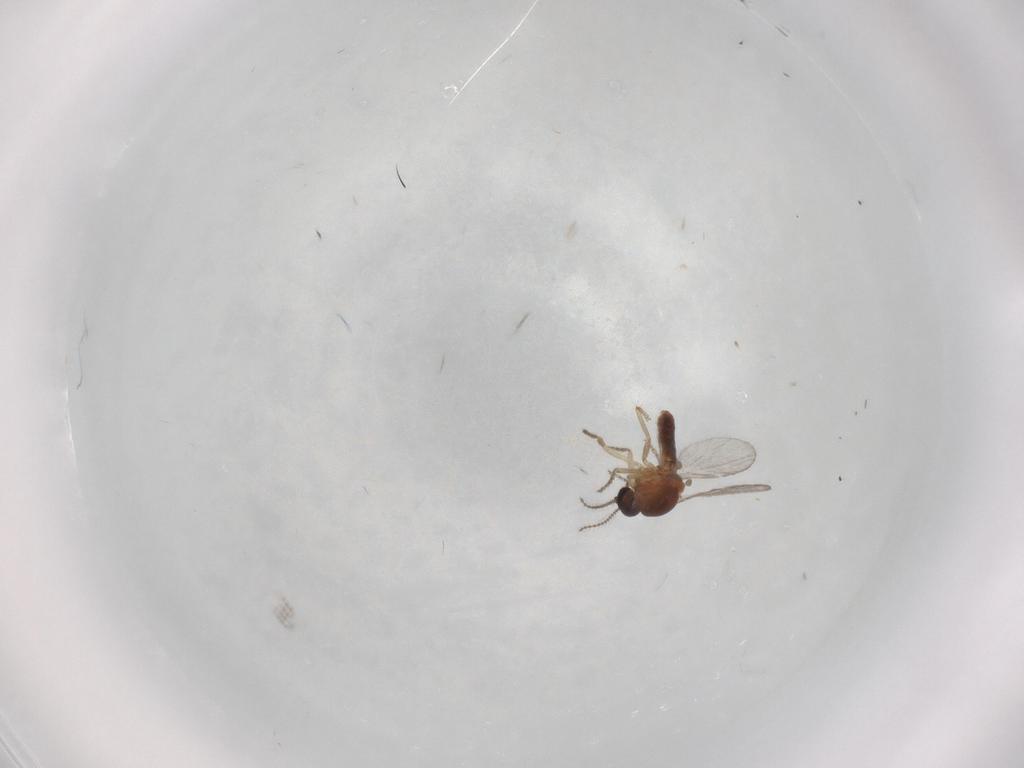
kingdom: Animalia
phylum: Arthropoda
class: Insecta
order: Diptera
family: Ceratopogonidae
